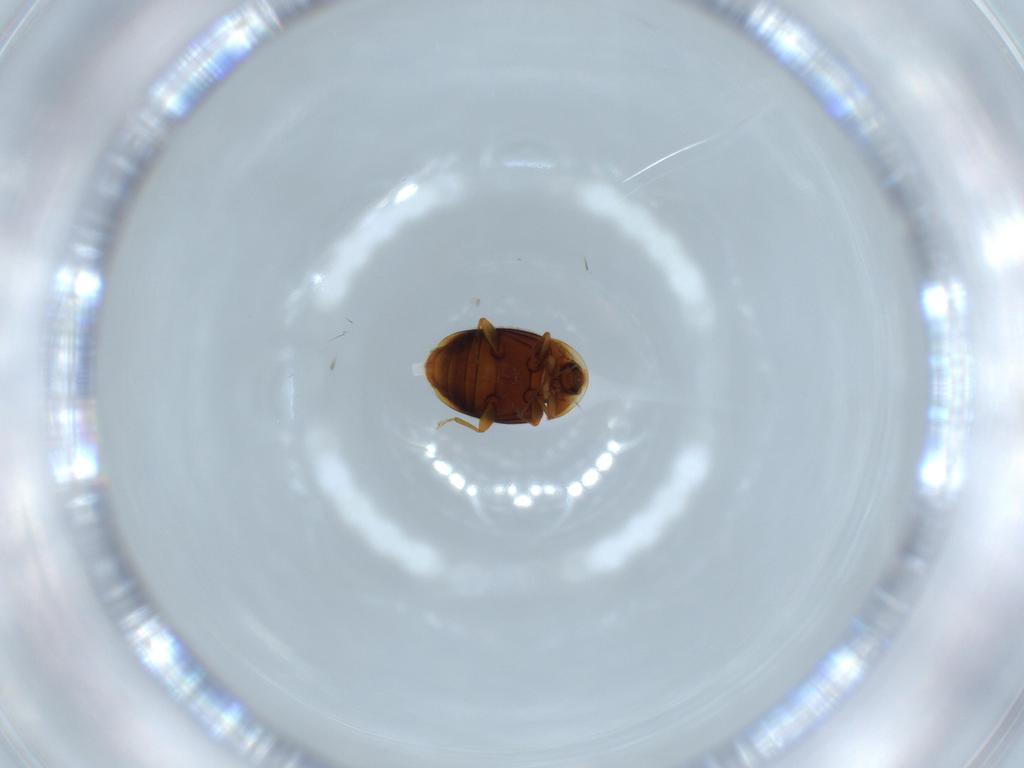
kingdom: Animalia
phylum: Arthropoda
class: Insecta
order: Coleoptera
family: Corylophidae
